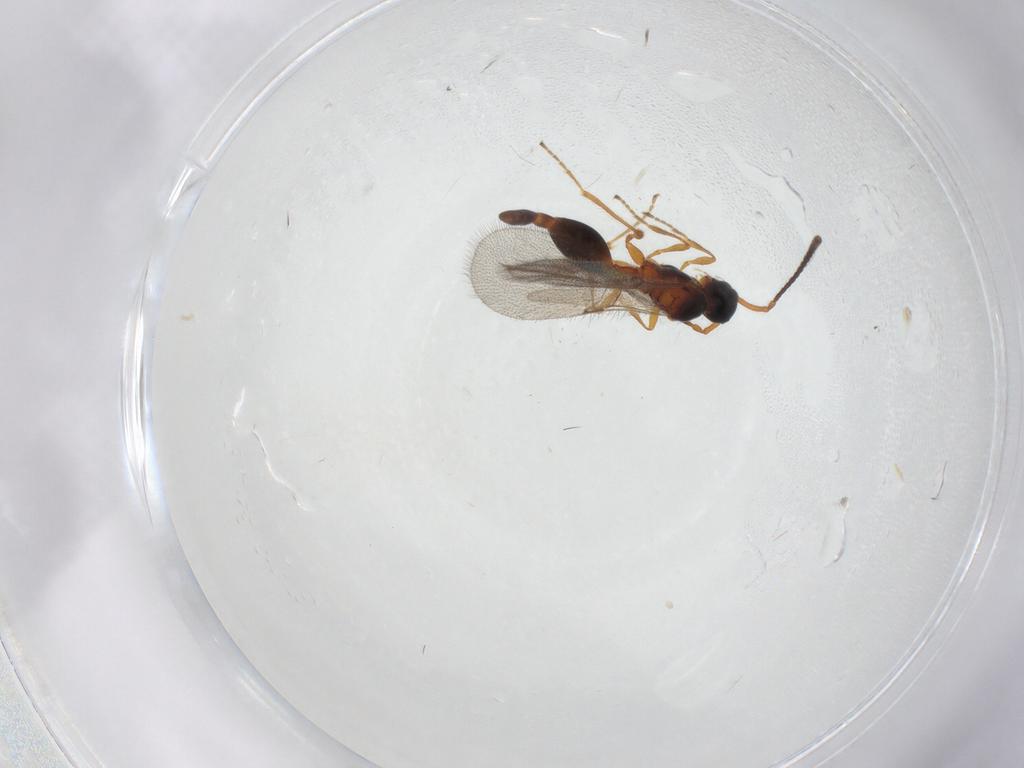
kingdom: Animalia
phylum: Arthropoda
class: Insecta
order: Hymenoptera
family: Diapriidae
